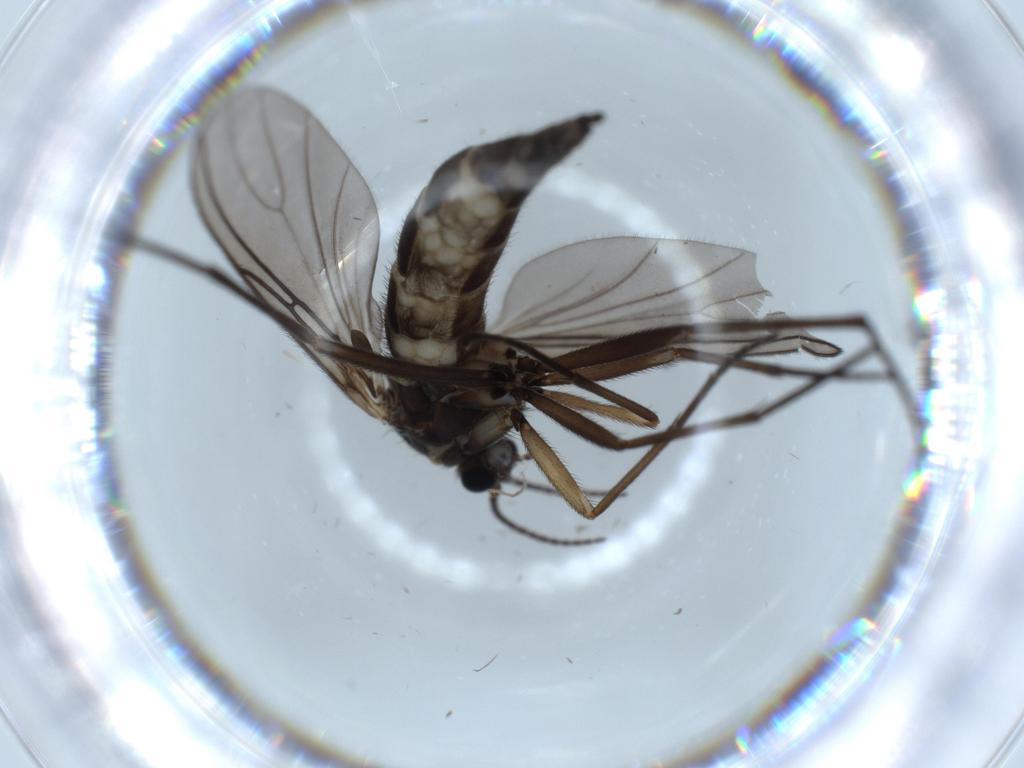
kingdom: Animalia
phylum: Arthropoda
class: Insecta
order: Diptera
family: Sciaridae
